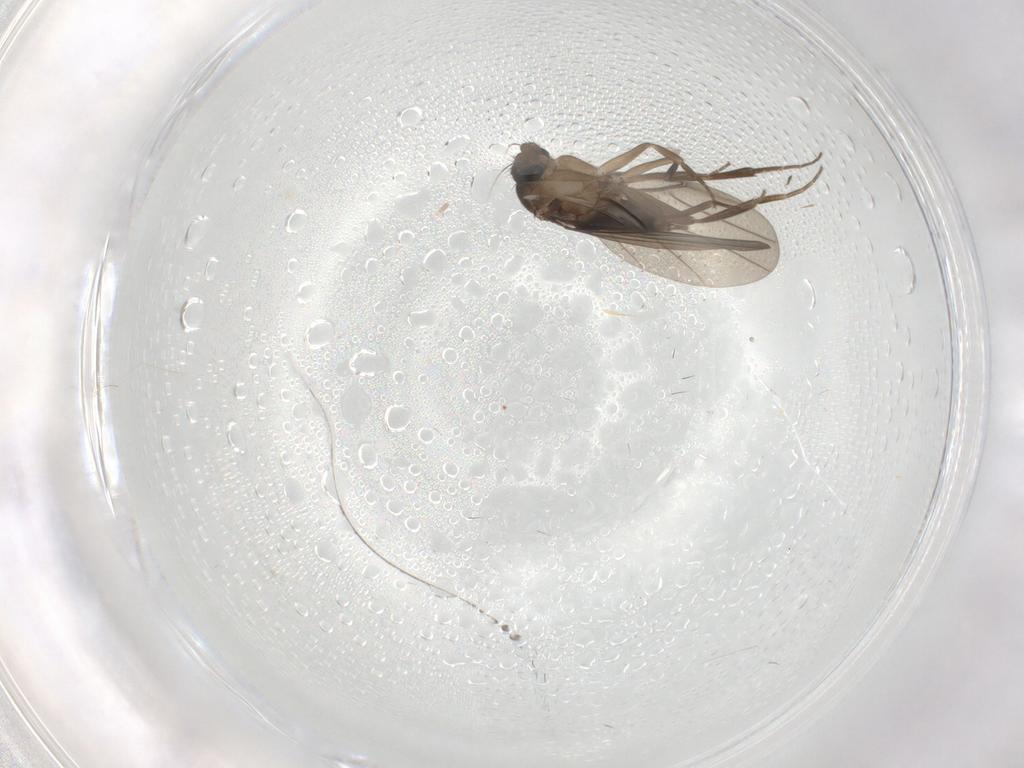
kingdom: Animalia
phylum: Arthropoda
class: Insecta
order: Diptera
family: Phoridae
